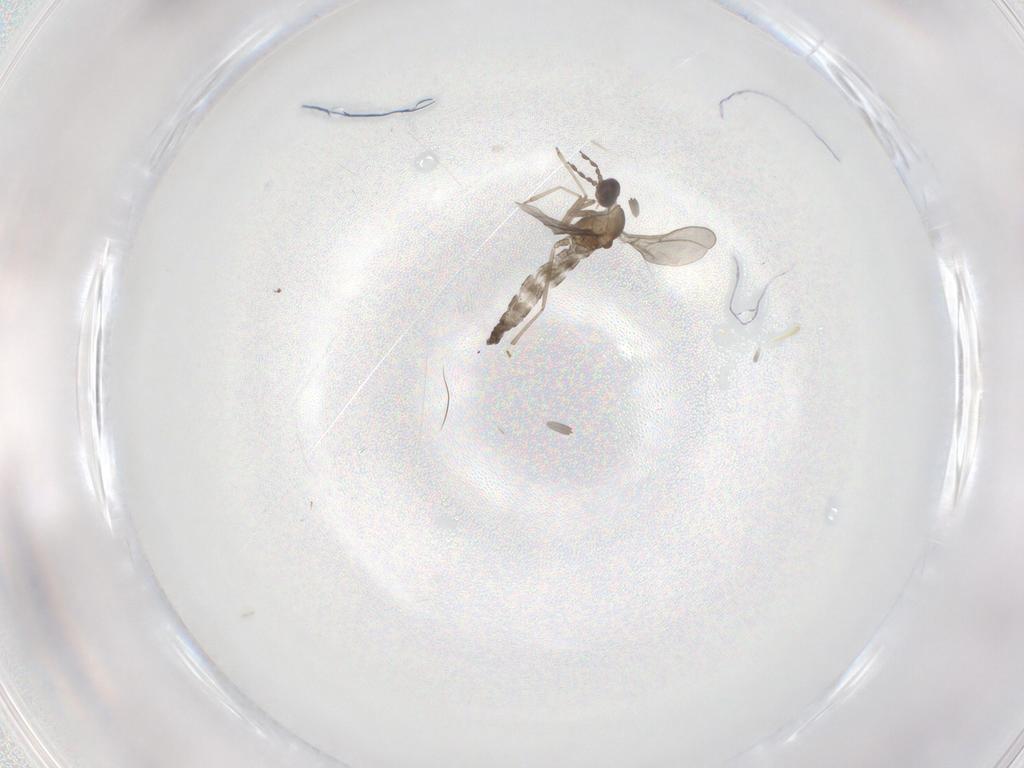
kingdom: Animalia
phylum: Arthropoda
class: Insecta
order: Diptera
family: Cecidomyiidae
